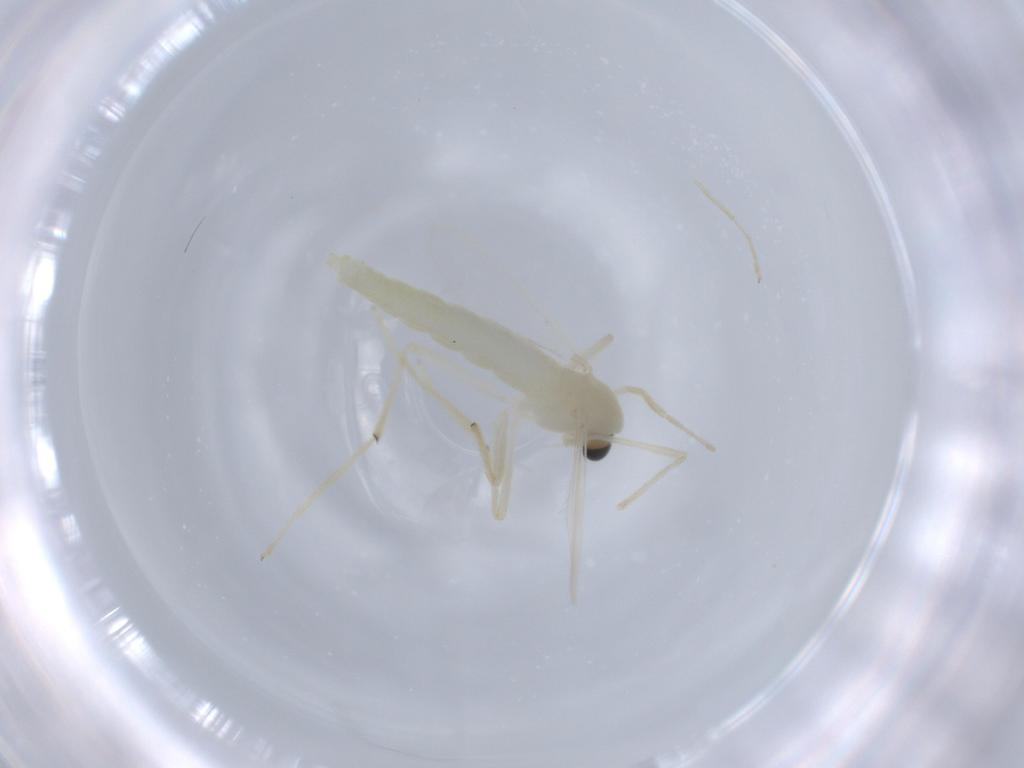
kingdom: Animalia
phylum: Arthropoda
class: Insecta
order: Diptera
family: Chironomidae
